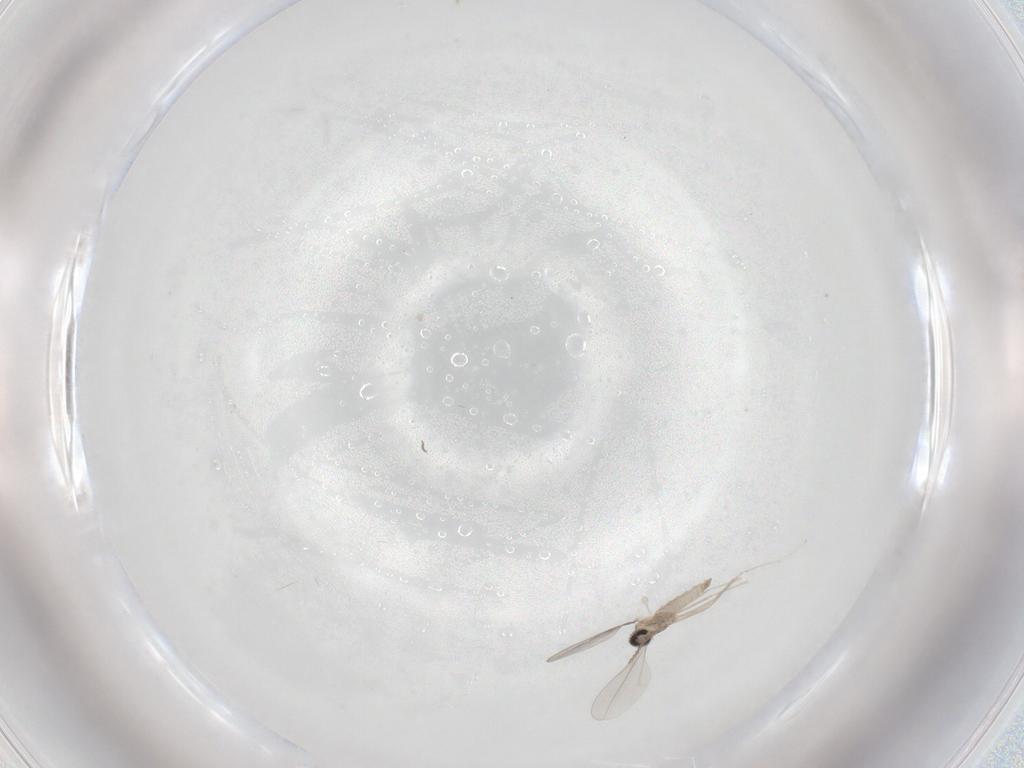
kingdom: Animalia
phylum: Arthropoda
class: Insecta
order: Diptera
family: Cecidomyiidae
